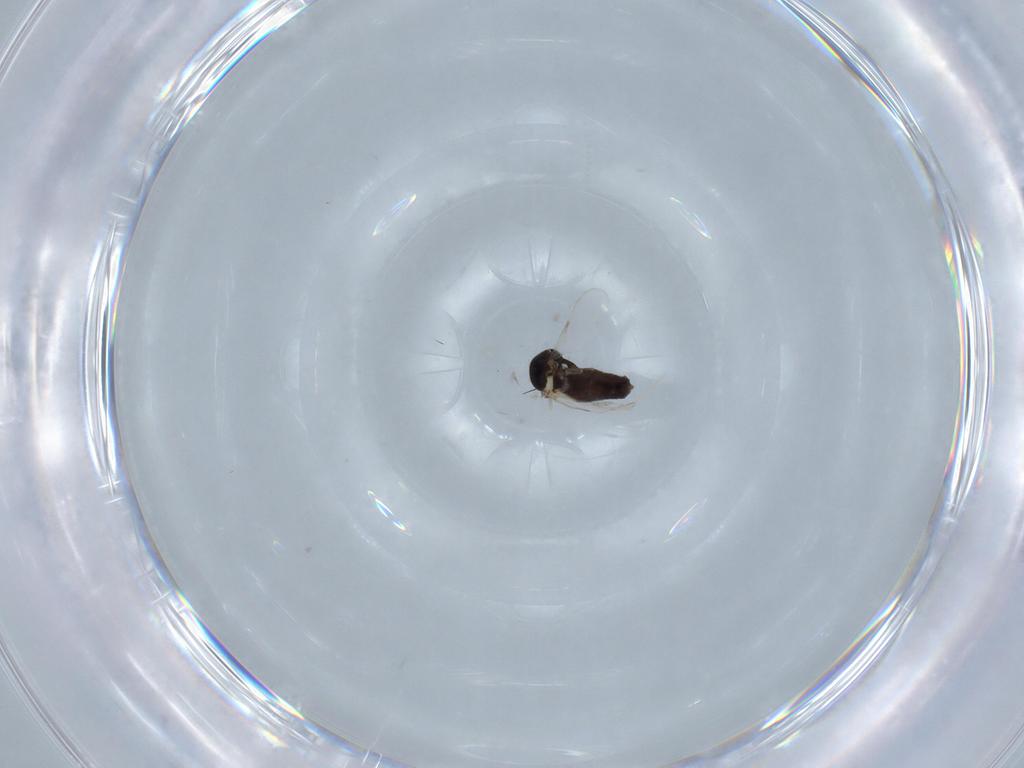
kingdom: Animalia
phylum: Arthropoda
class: Insecta
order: Diptera
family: Ceratopogonidae
